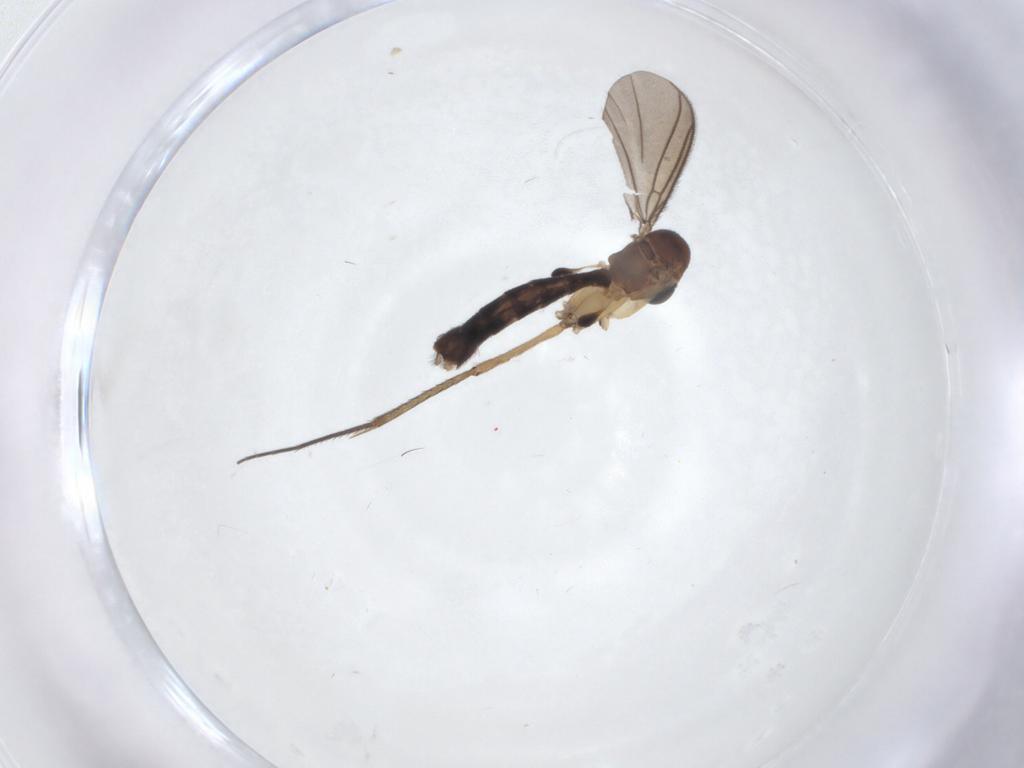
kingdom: Animalia
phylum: Arthropoda
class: Insecta
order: Diptera
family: Mycetophilidae
